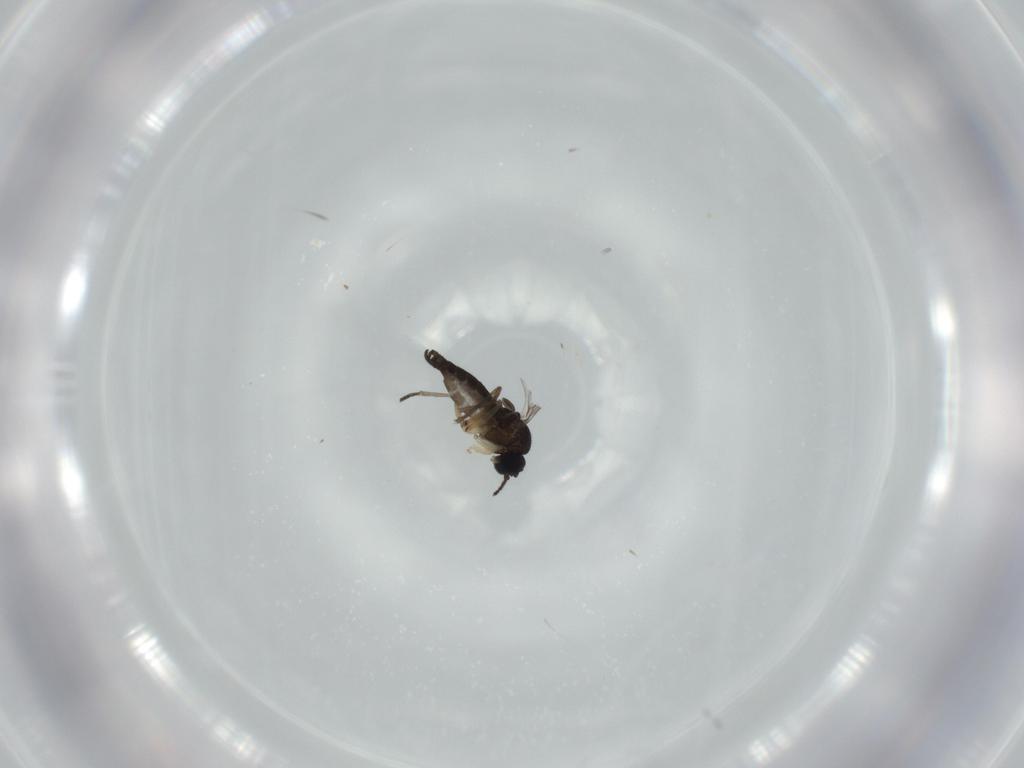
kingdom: Animalia
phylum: Arthropoda
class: Insecta
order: Diptera
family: Sciaridae
